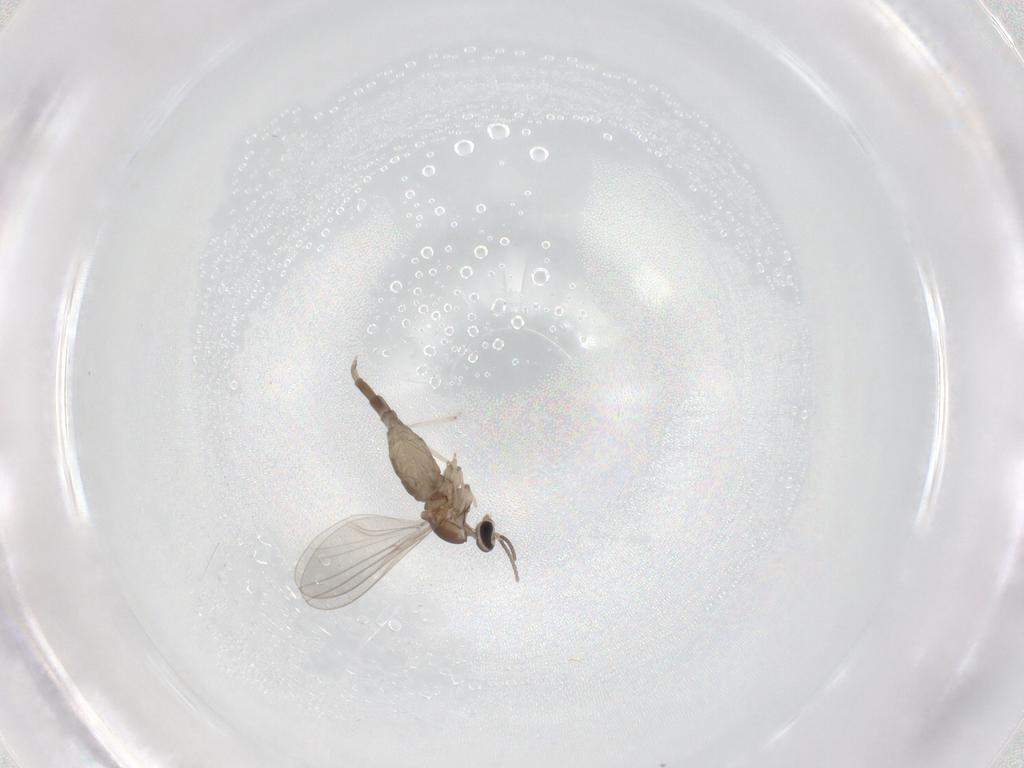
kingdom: Animalia
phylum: Arthropoda
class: Insecta
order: Diptera
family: Cecidomyiidae
